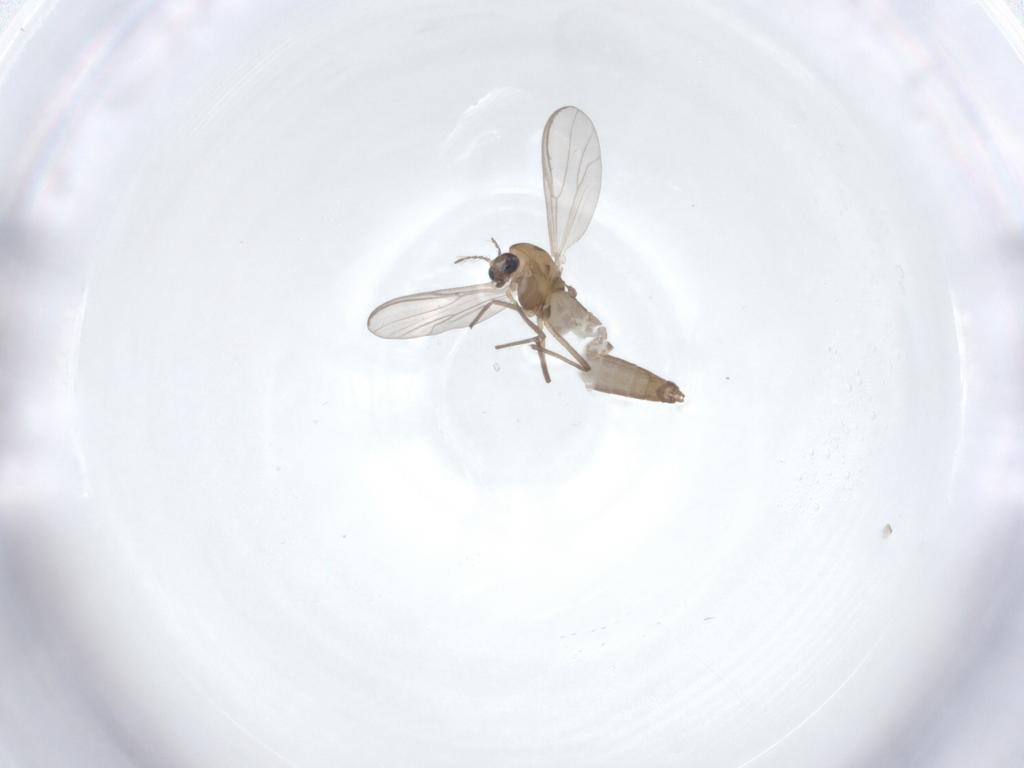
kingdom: Animalia
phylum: Arthropoda
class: Insecta
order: Diptera
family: Chironomidae
